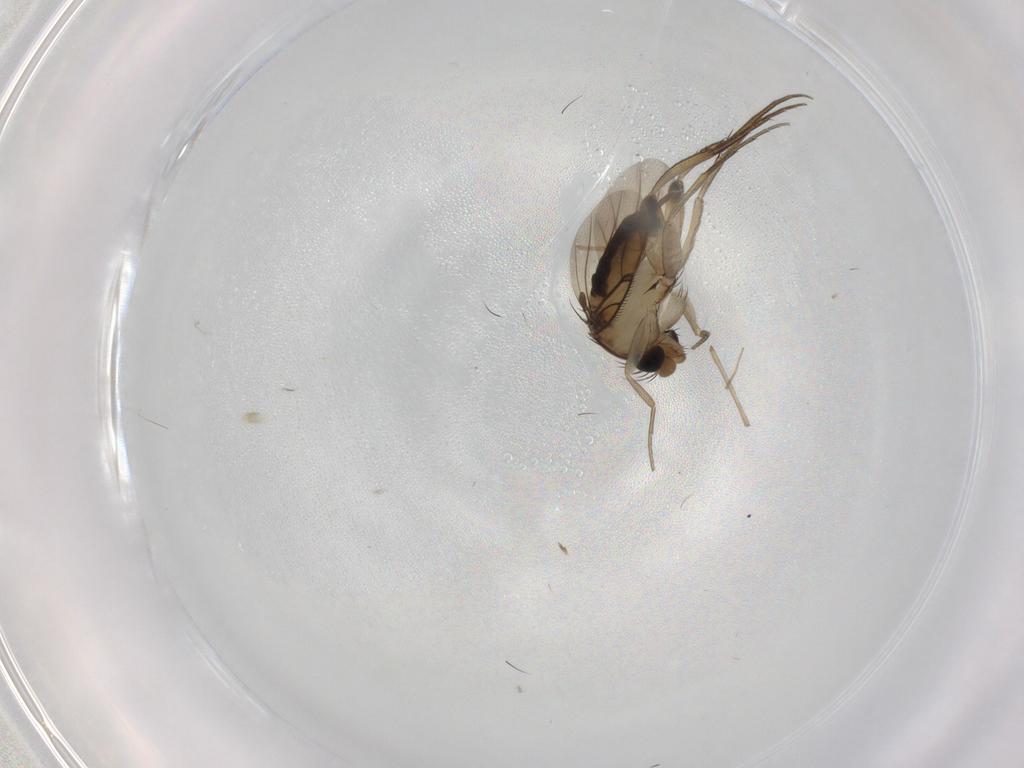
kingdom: Animalia
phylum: Arthropoda
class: Insecta
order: Diptera
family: Phoridae
